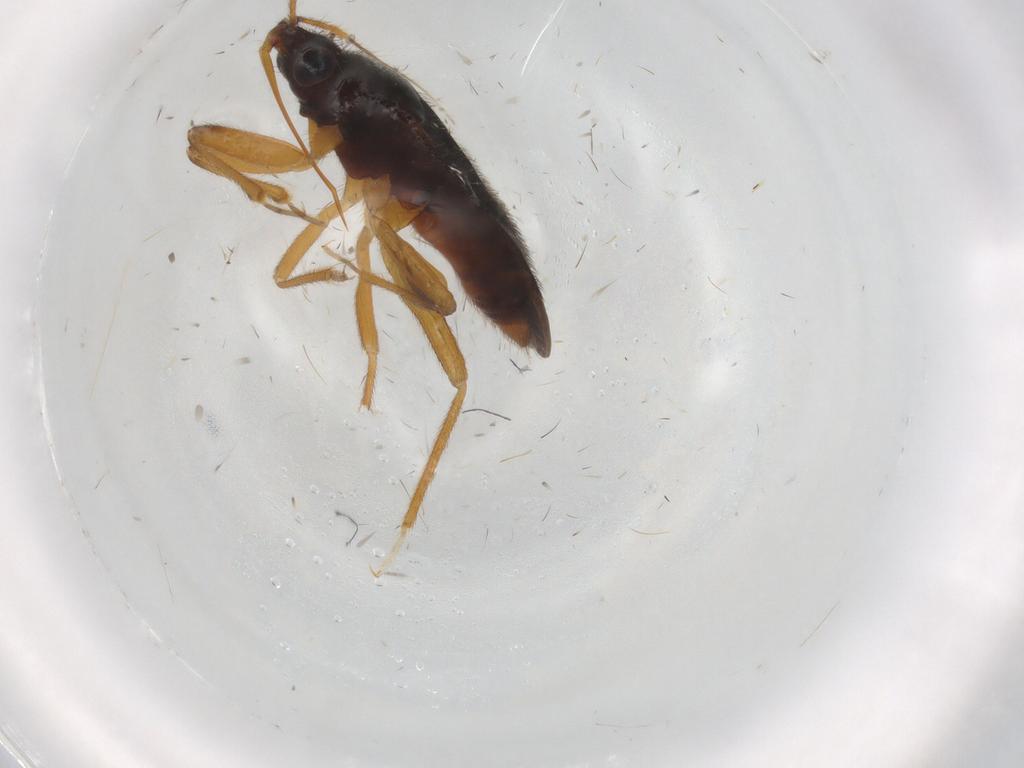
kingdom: Animalia
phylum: Arthropoda
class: Insecta
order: Hemiptera
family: Anthocoridae
